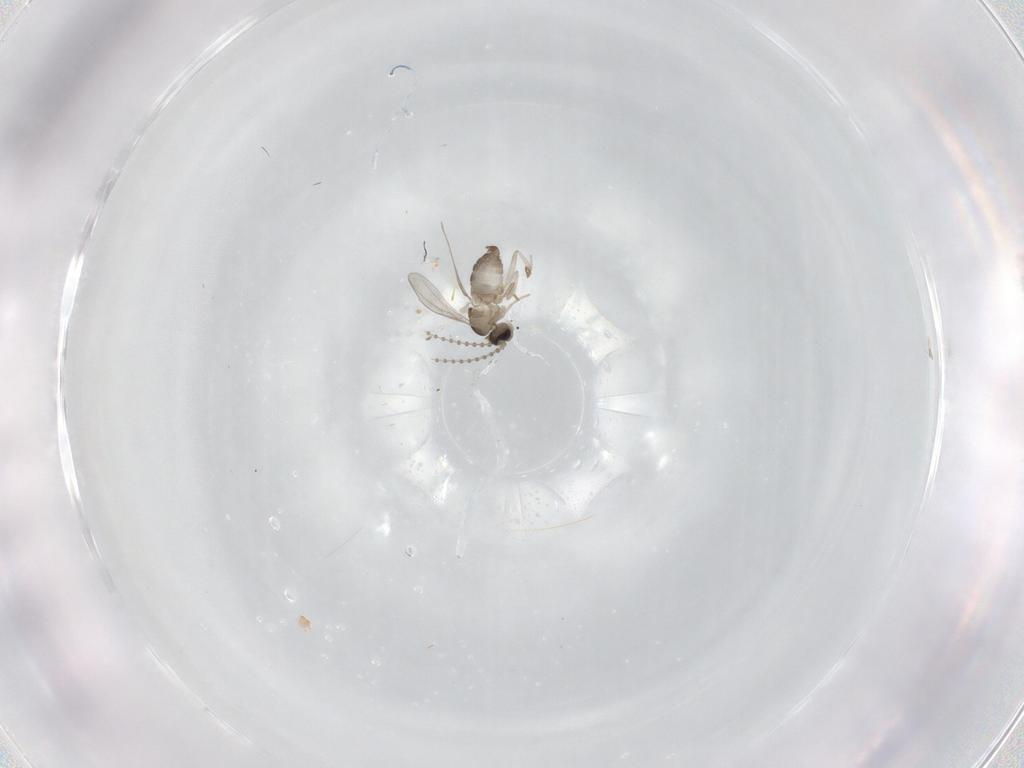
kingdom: Animalia
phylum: Arthropoda
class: Insecta
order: Diptera
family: Cecidomyiidae
